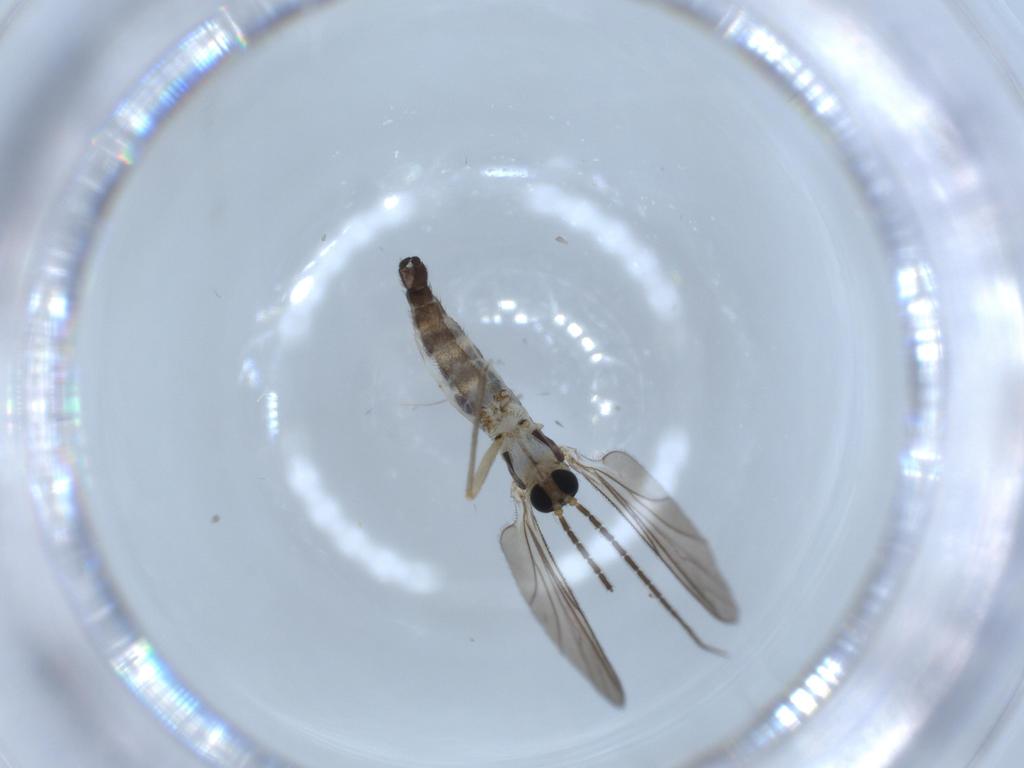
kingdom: Animalia
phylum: Arthropoda
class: Insecta
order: Diptera
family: Sciaridae
